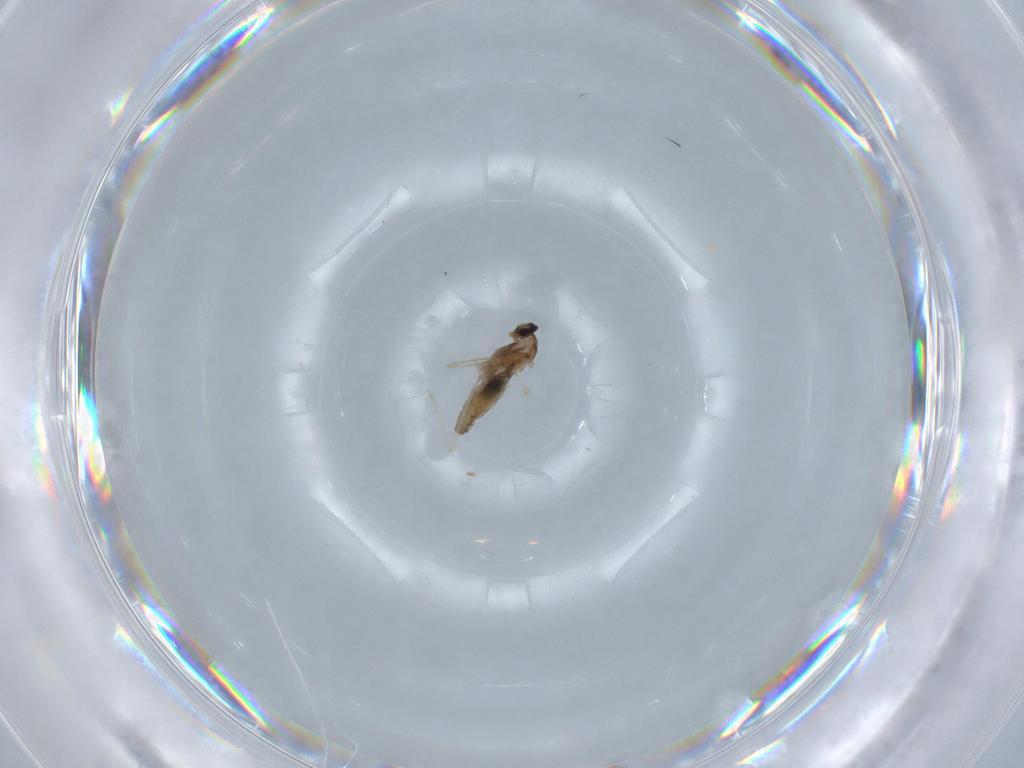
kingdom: Animalia
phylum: Arthropoda
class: Insecta
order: Diptera
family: Cecidomyiidae
